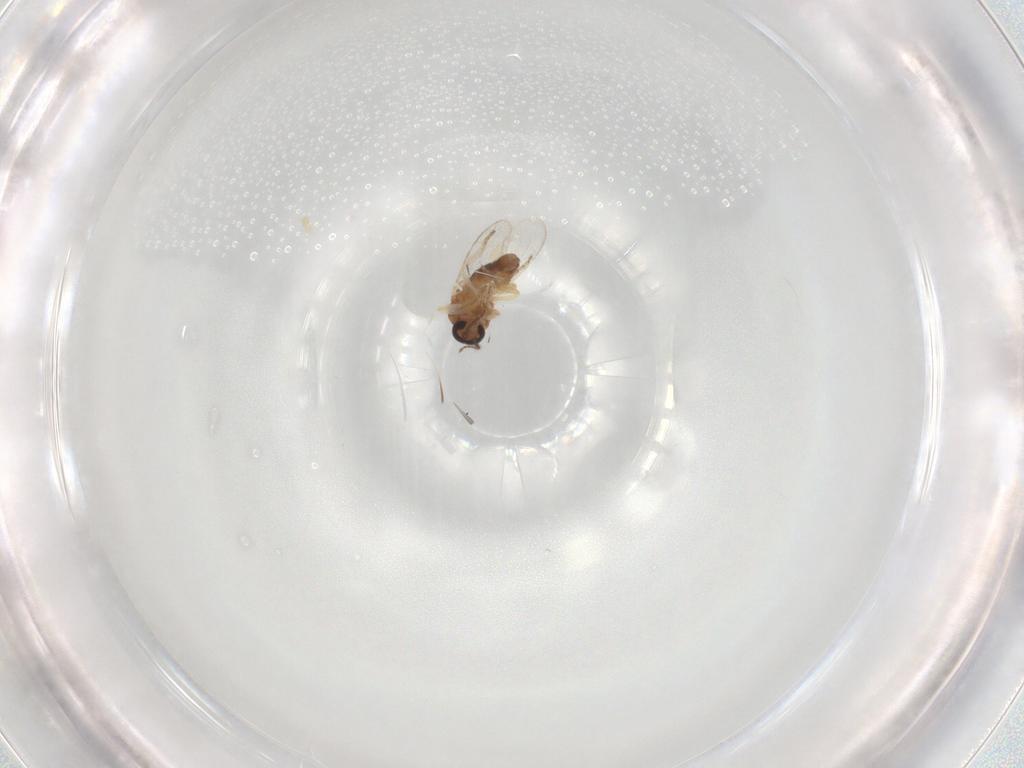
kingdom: Animalia
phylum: Arthropoda
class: Insecta
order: Diptera
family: Ceratopogonidae
